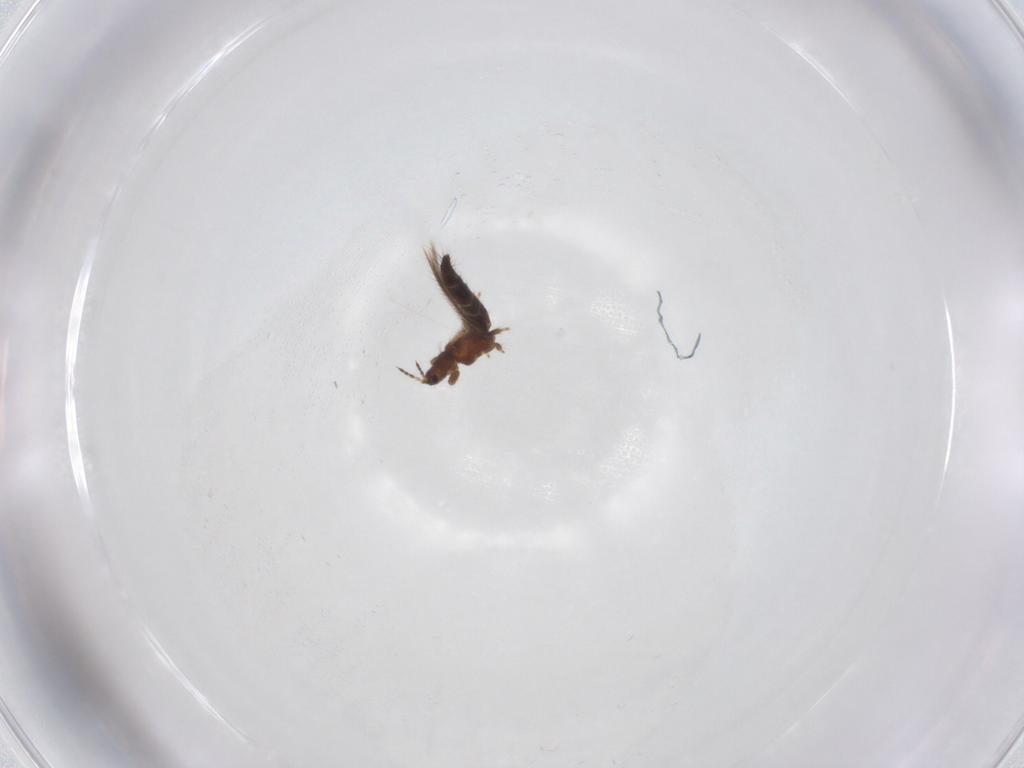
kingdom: Animalia
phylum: Arthropoda
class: Insecta
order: Thysanoptera
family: Thripidae
